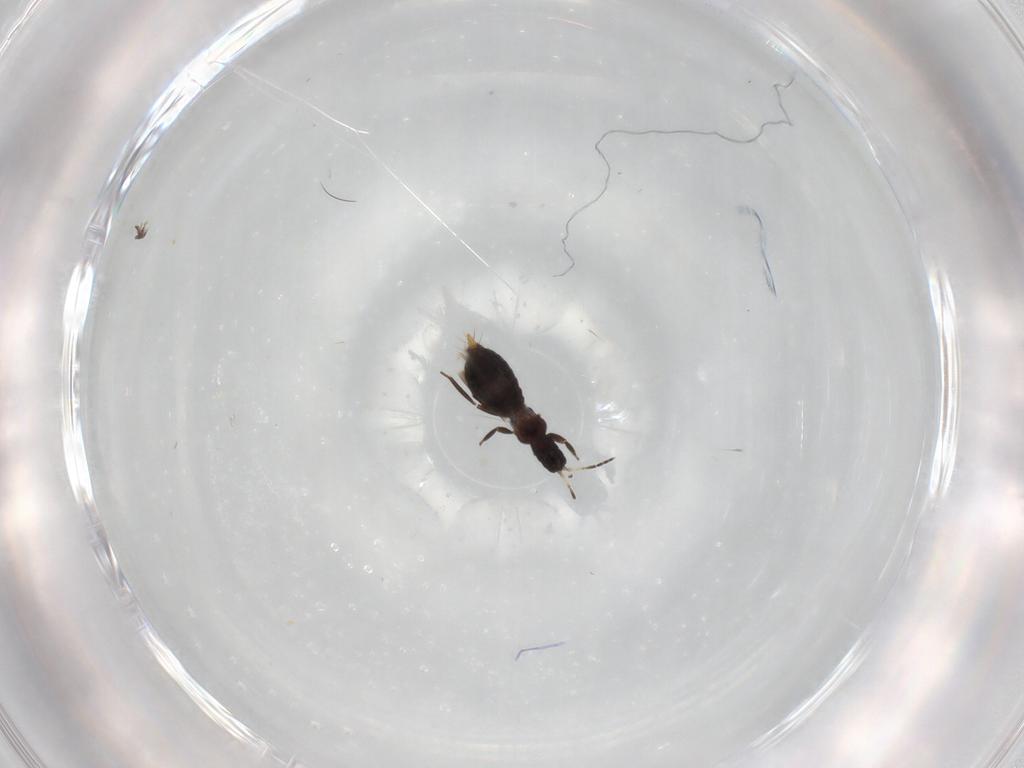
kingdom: Animalia
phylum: Arthropoda
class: Insecta
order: Thysanoptera
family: Aeolothripidae
